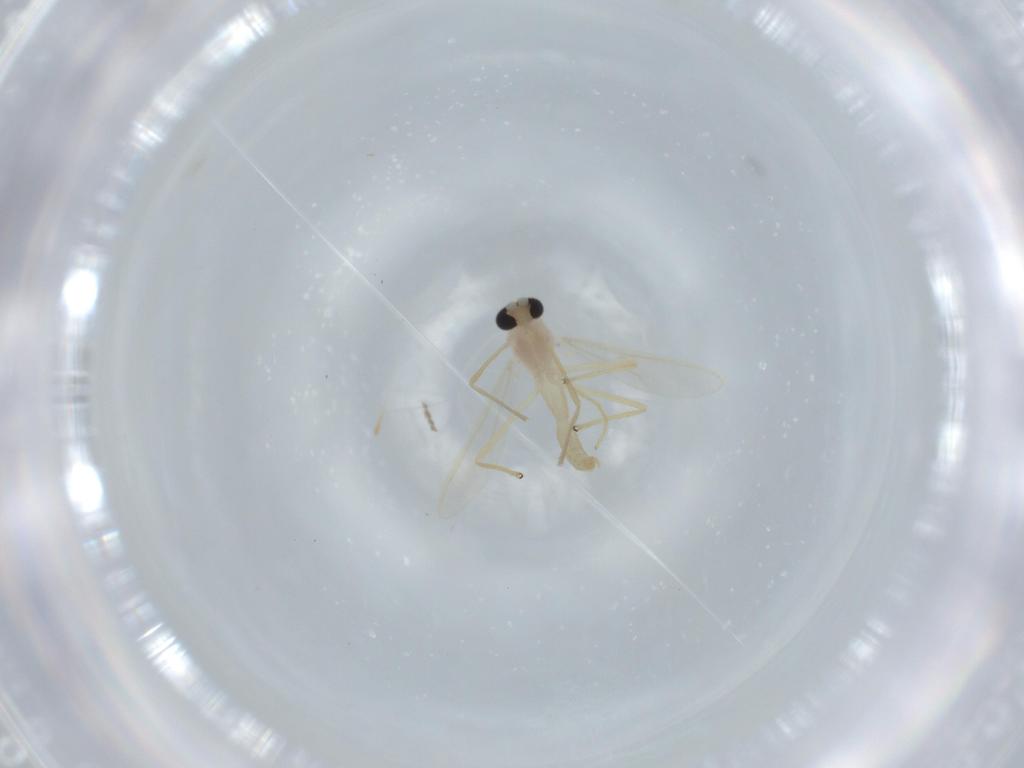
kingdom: Animalia
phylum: Arthropoda
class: Insecta
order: Diptera
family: Chironomidae
